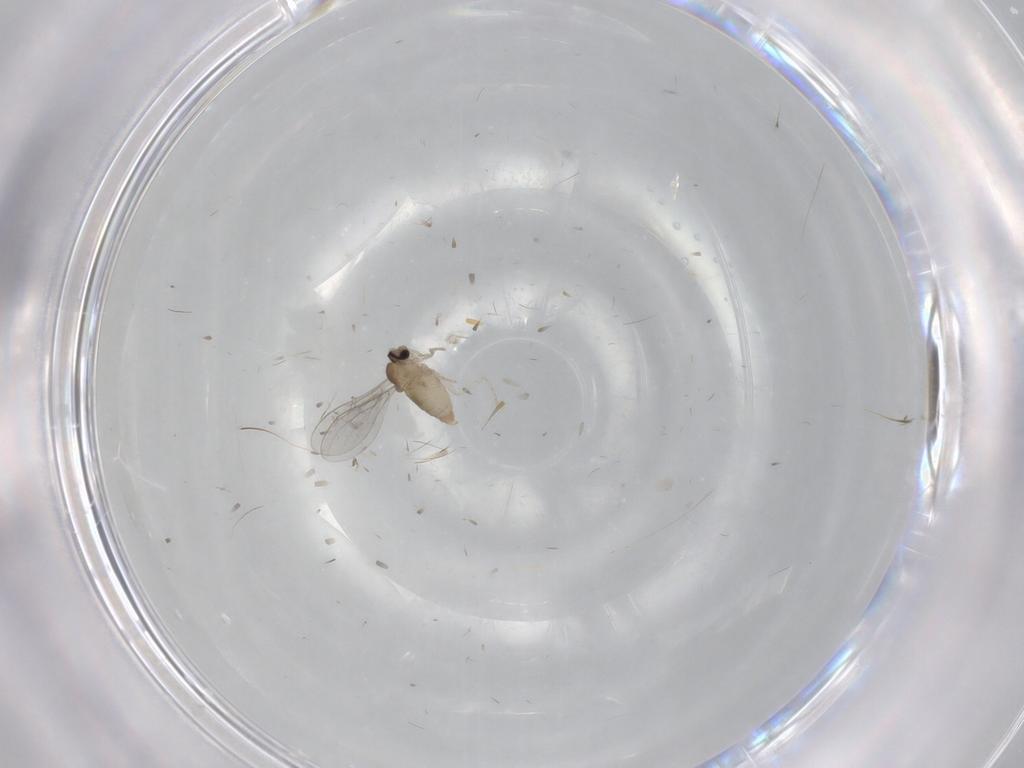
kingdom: Animalia
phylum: Arthropoda
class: Insecta
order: Diptera
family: Cecidomyiidae
